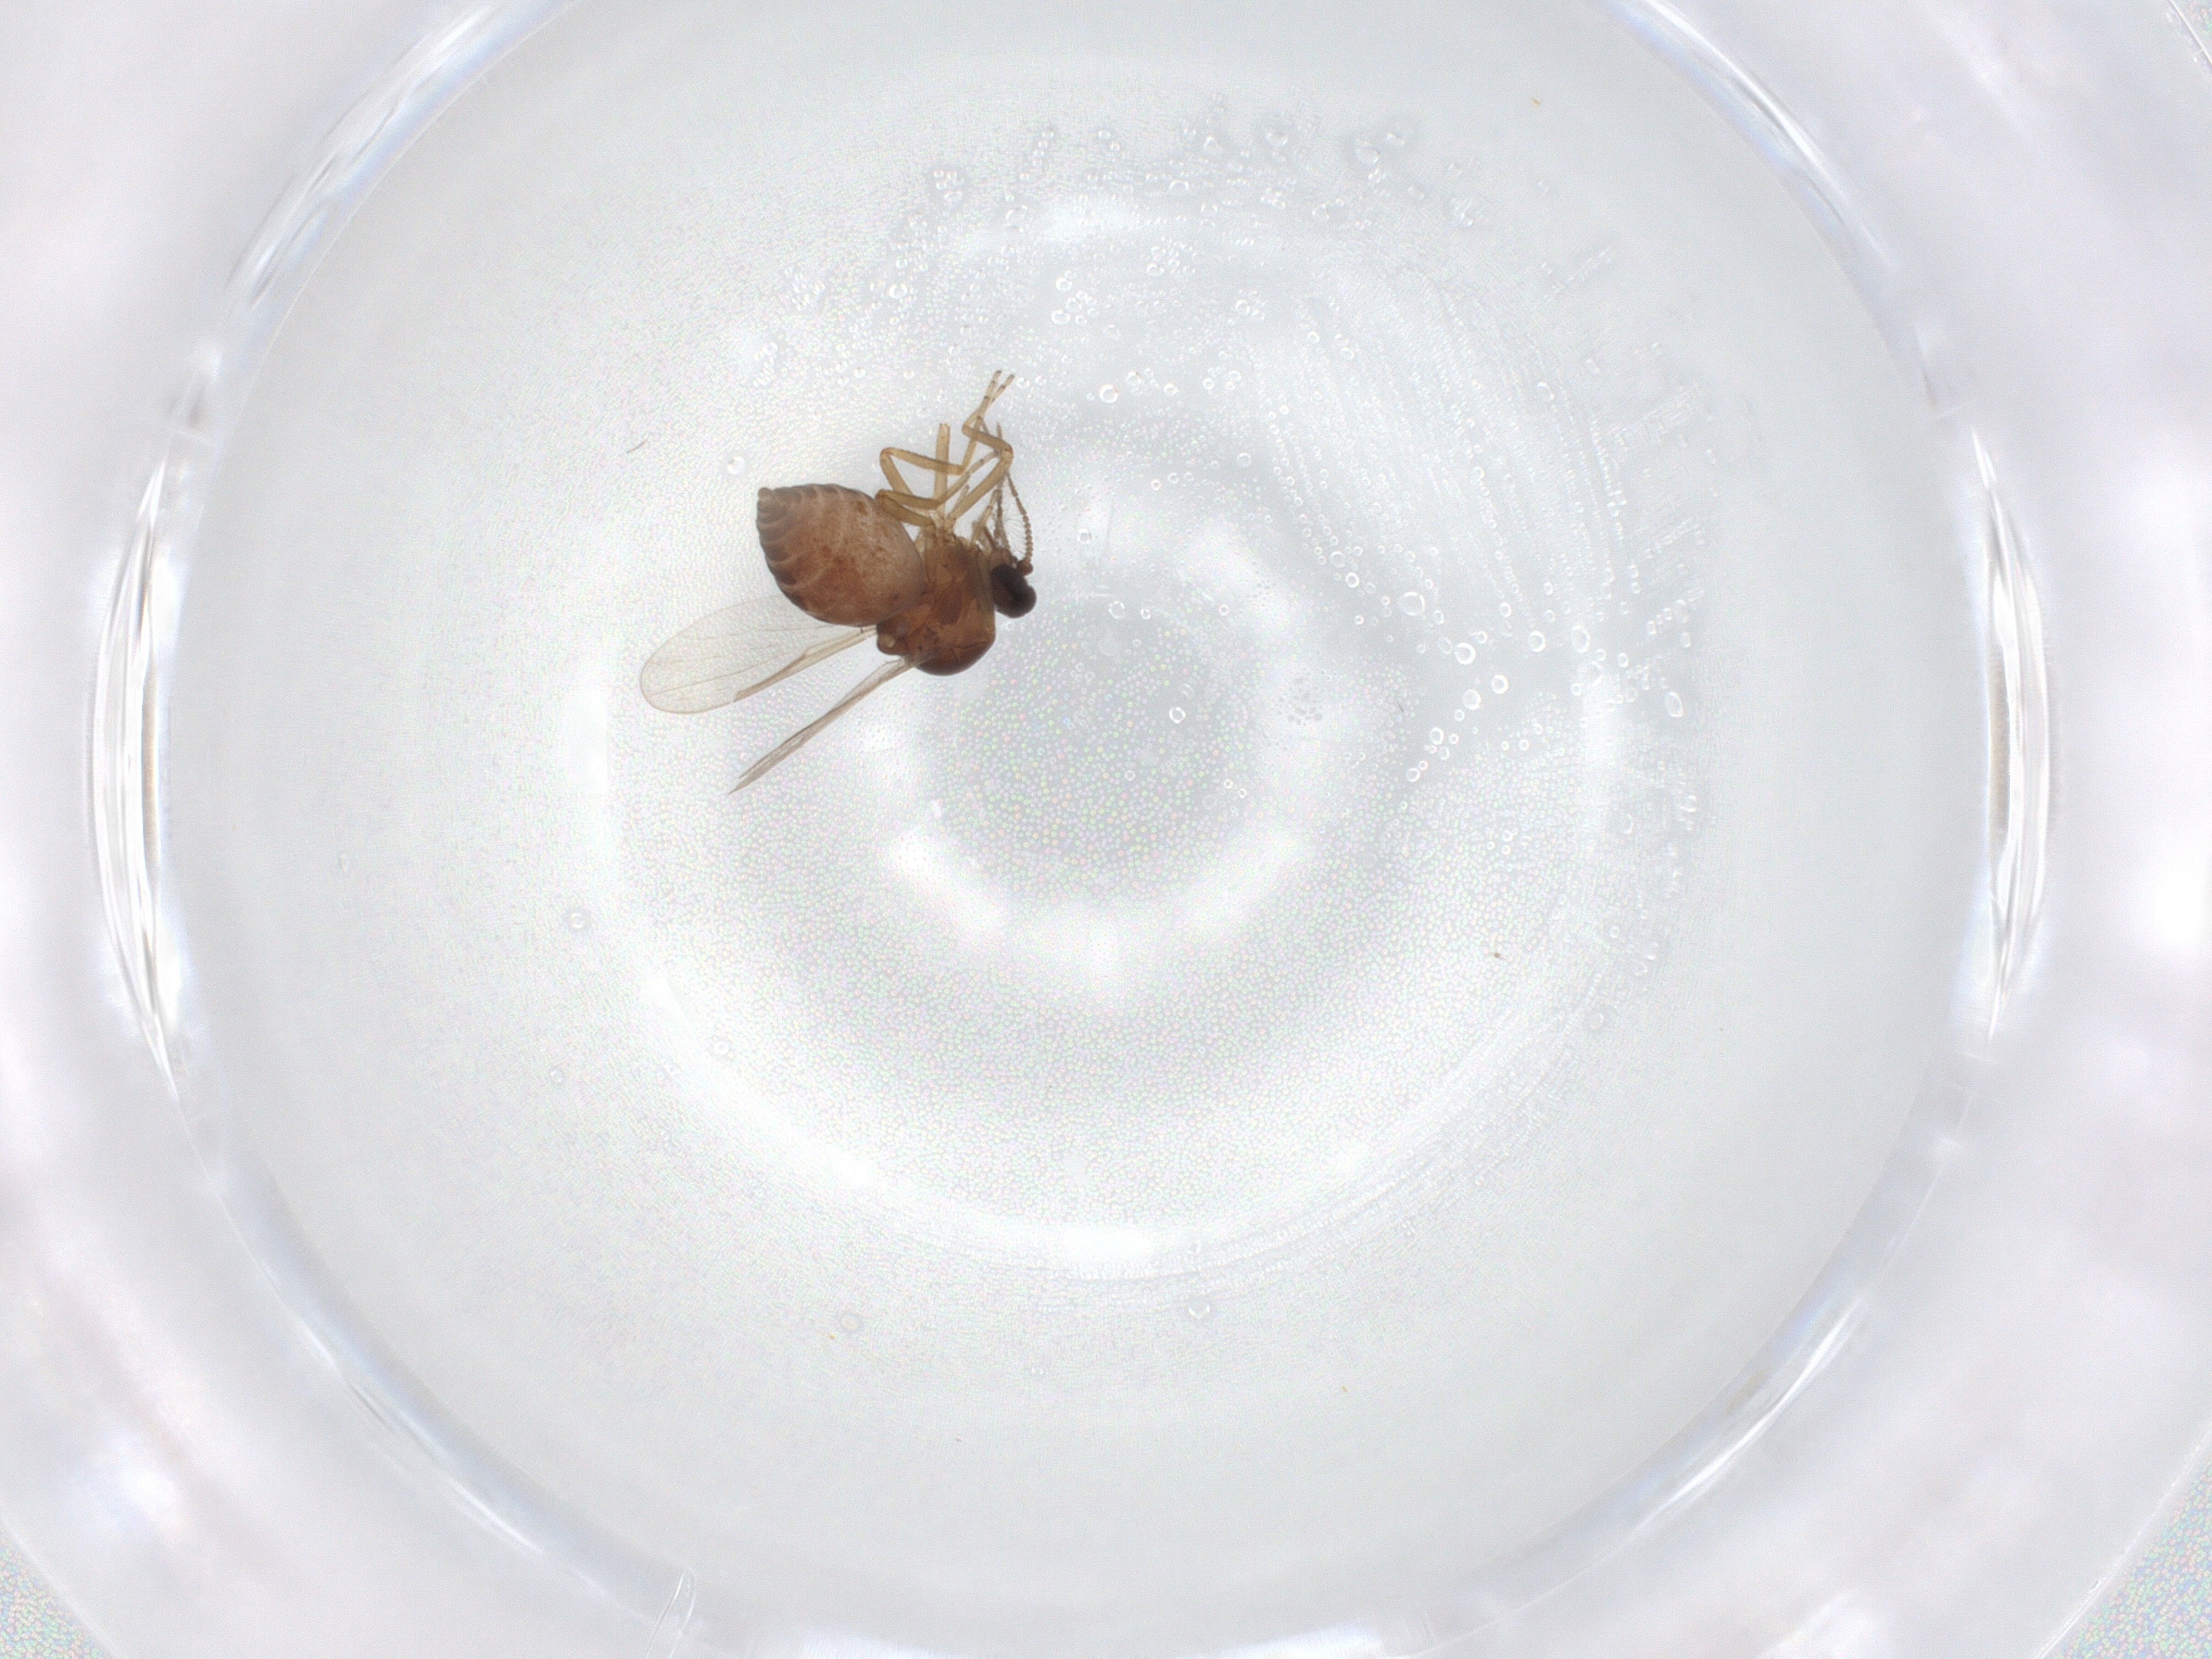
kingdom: Animalia
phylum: Arthropoda
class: Insecta
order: Diptera
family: Ceratopogonidae
